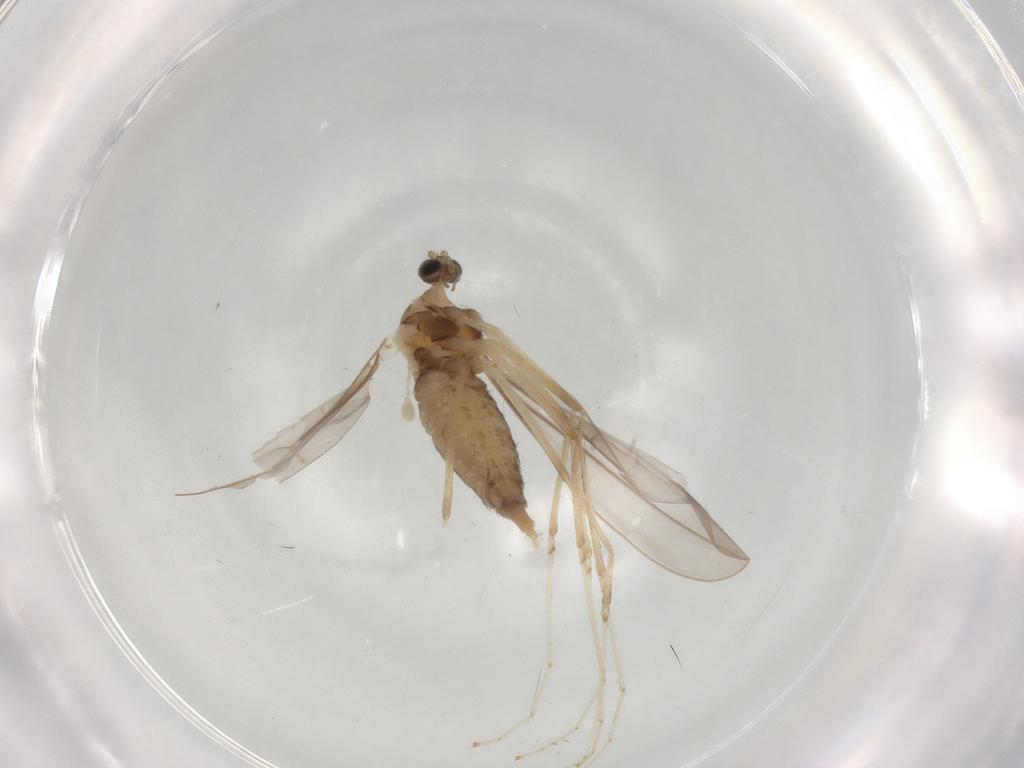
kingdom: Animalia
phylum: Arthropoda
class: Insecta
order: Diptera
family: Cecidomyiidae
